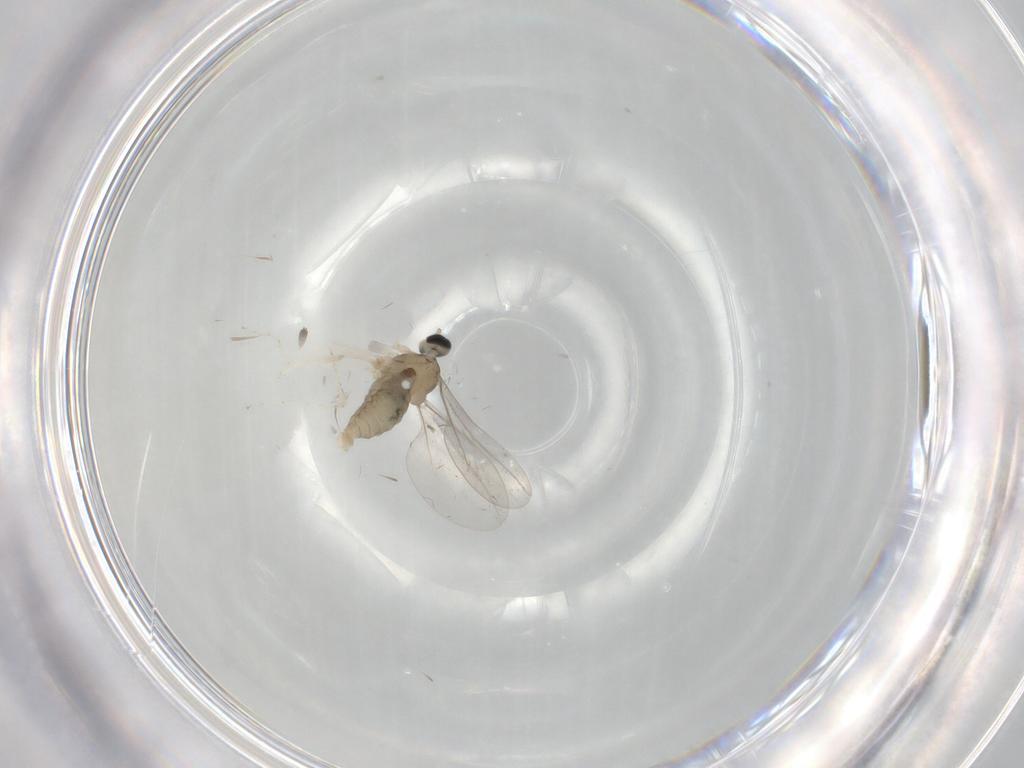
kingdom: Animalia
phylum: Arthropoda
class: Insecta
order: Diptera
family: Cecidomyiidae
